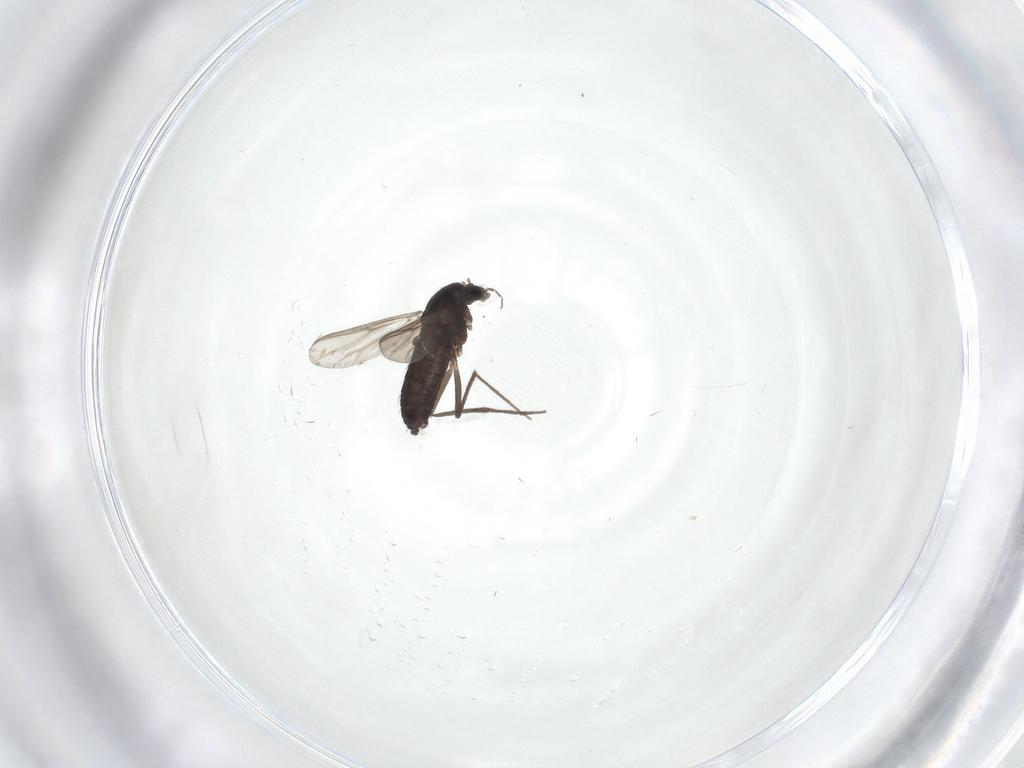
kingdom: Animalia
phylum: Arthropoda
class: Insecta
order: Diptera
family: Chironomidae
